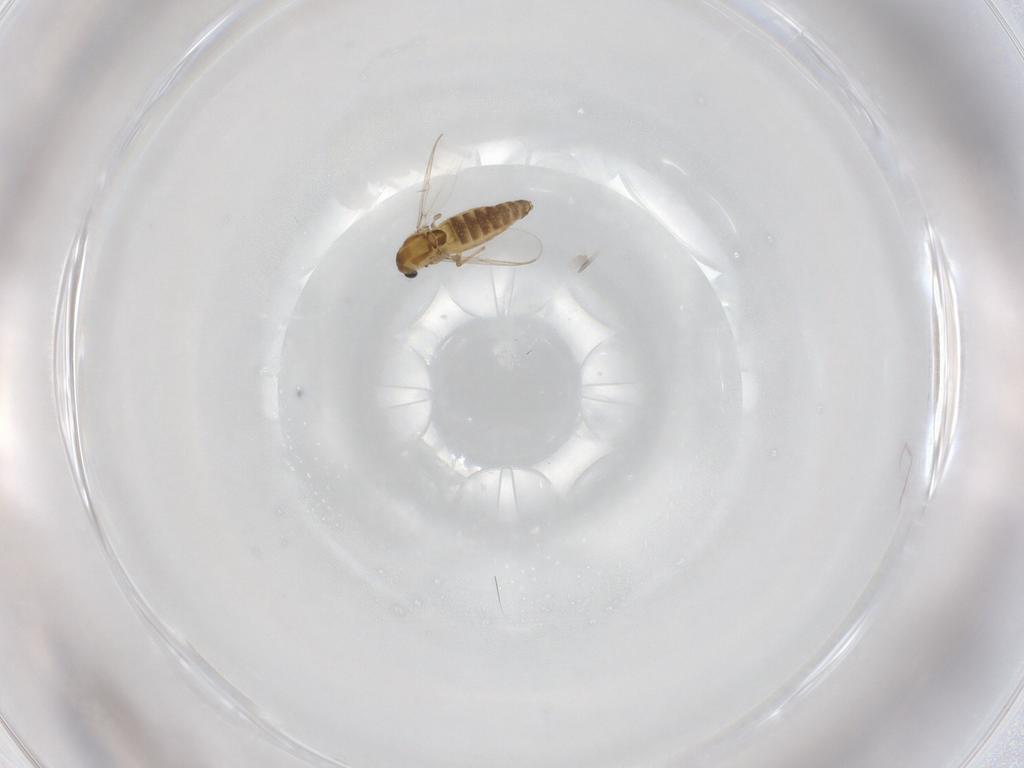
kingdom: Animalia
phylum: Arthropoda
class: Insecta
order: Diptera
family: Chironomidae
